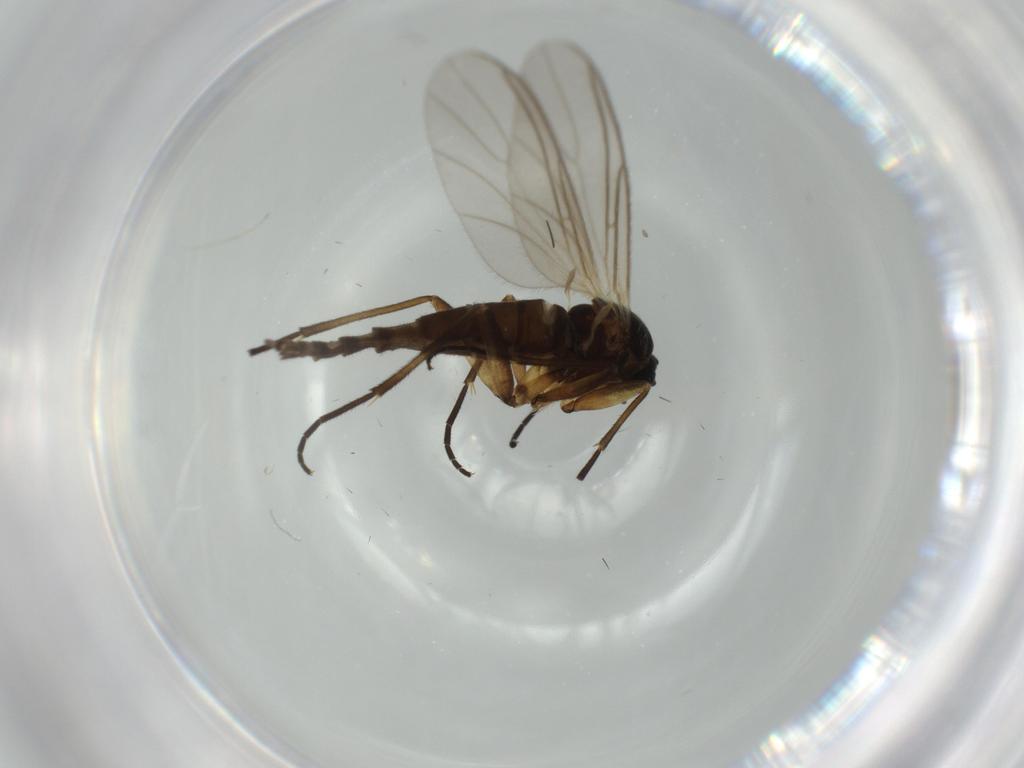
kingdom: Animalia
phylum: Arthropoda
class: Insecta
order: Diptera
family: Sciaridae
